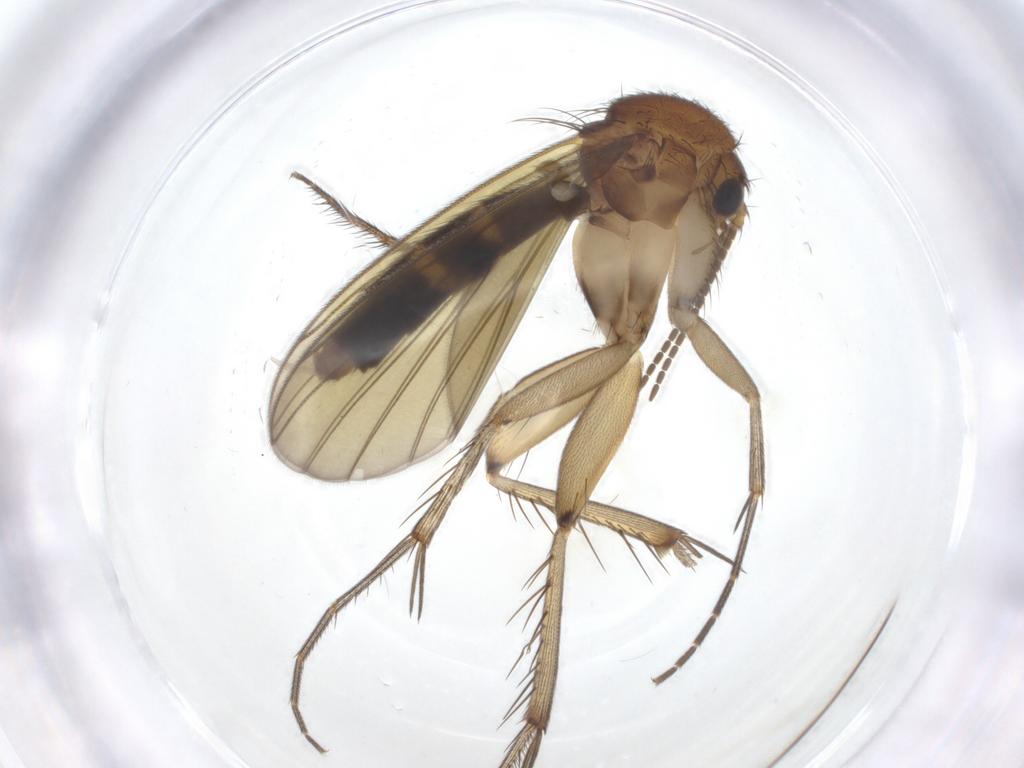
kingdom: Animalia
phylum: Arthropoda
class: Insecta
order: Diptera
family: Mycetophilidae
